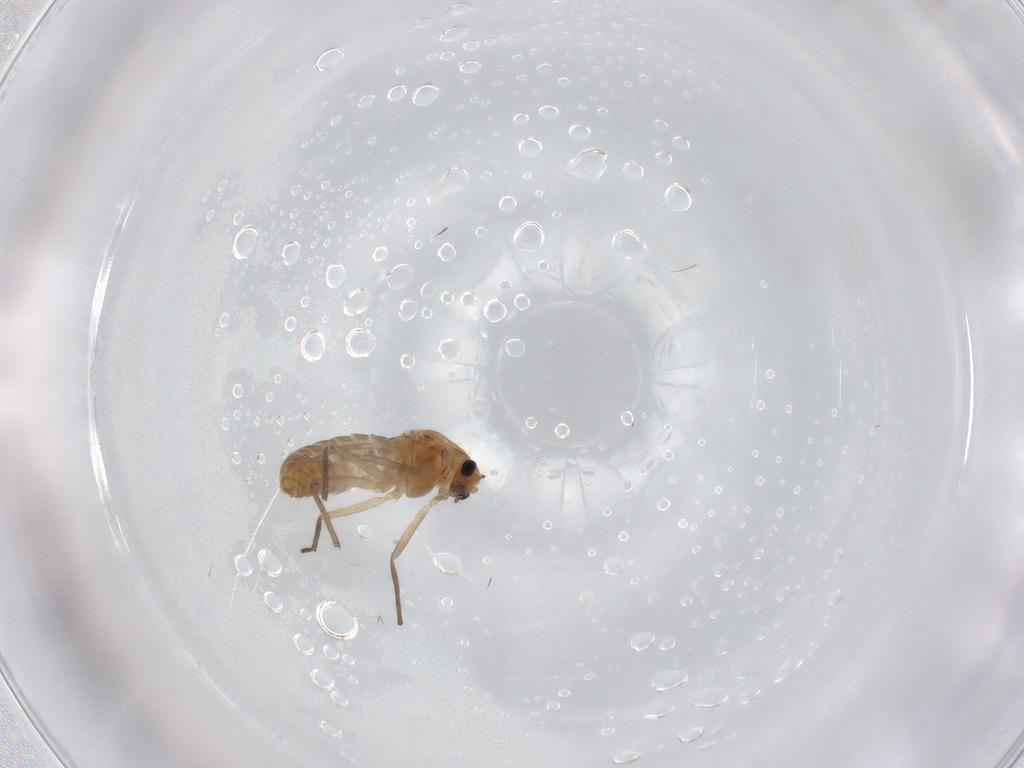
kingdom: Animalia
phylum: Arthropoda
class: Insecta
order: Diptera
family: Chironomidae
